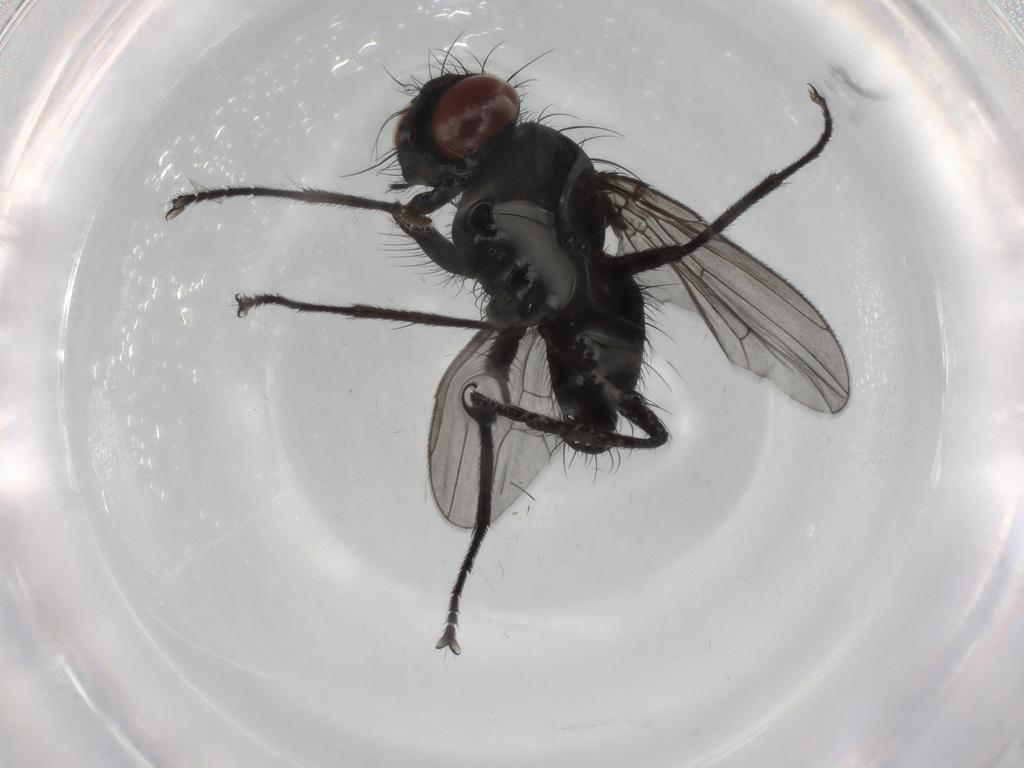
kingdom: Animalia
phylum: Arthropoda
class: Insecta
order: Diptera
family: Muscidae
